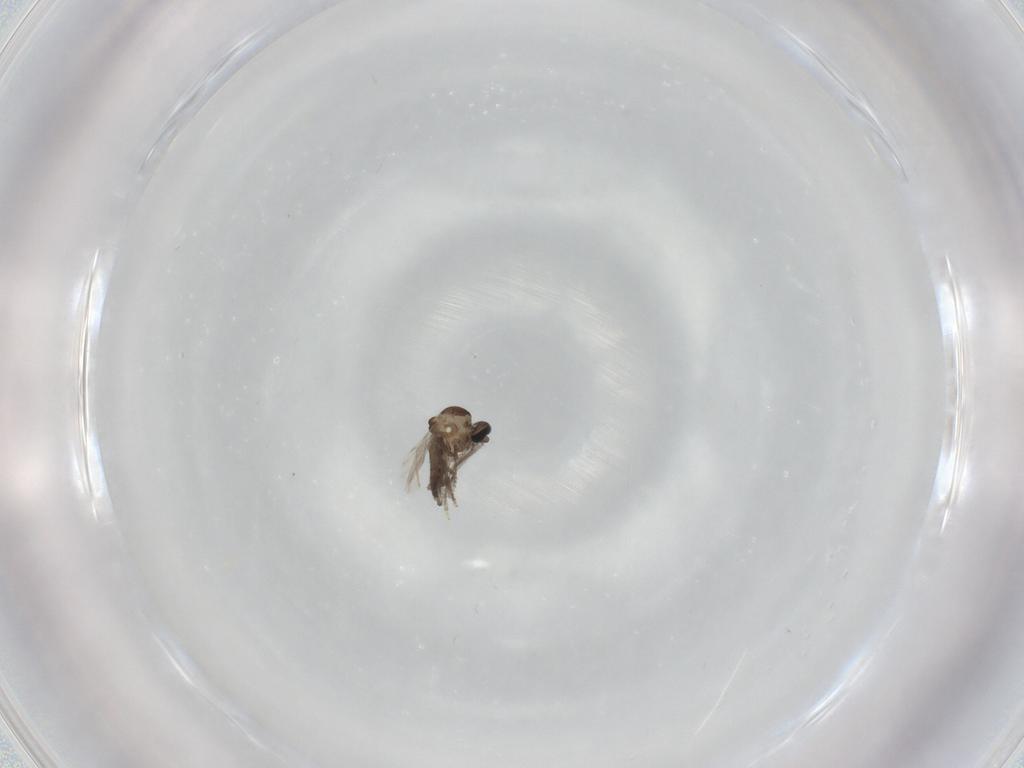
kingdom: Animalia
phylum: Arthropoda
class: Insecta
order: Diptera
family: Ceratopogonidae
